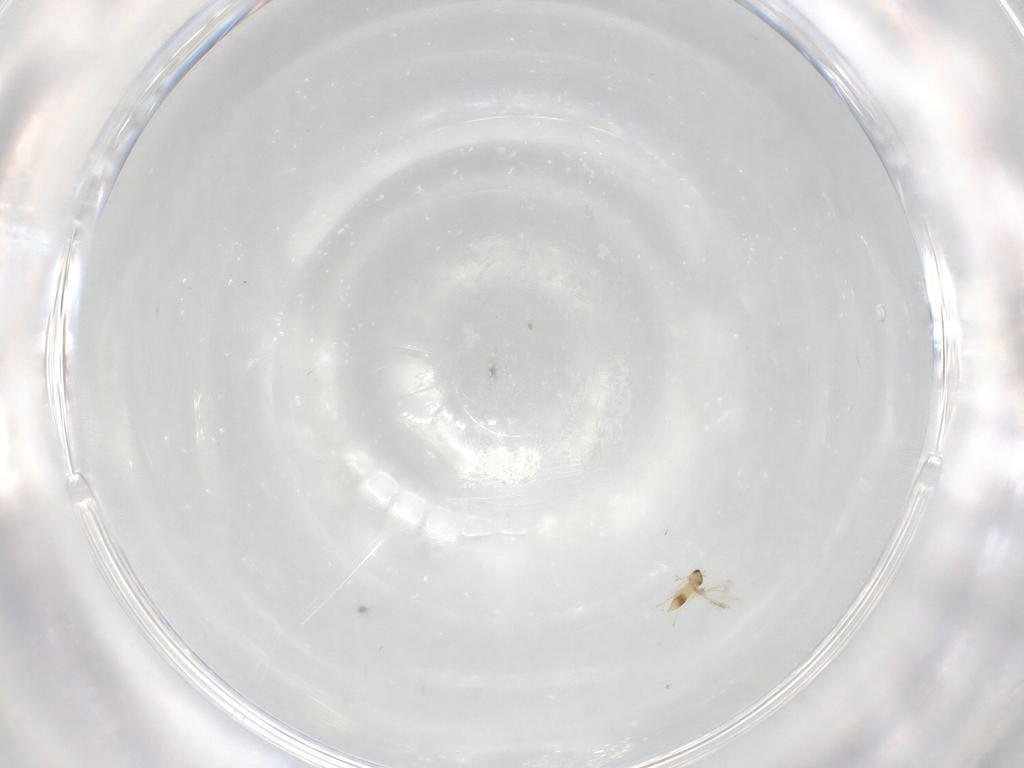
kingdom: Animalia
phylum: Arthropoda
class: Insecta
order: Hymenoptera
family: Mymaridae
